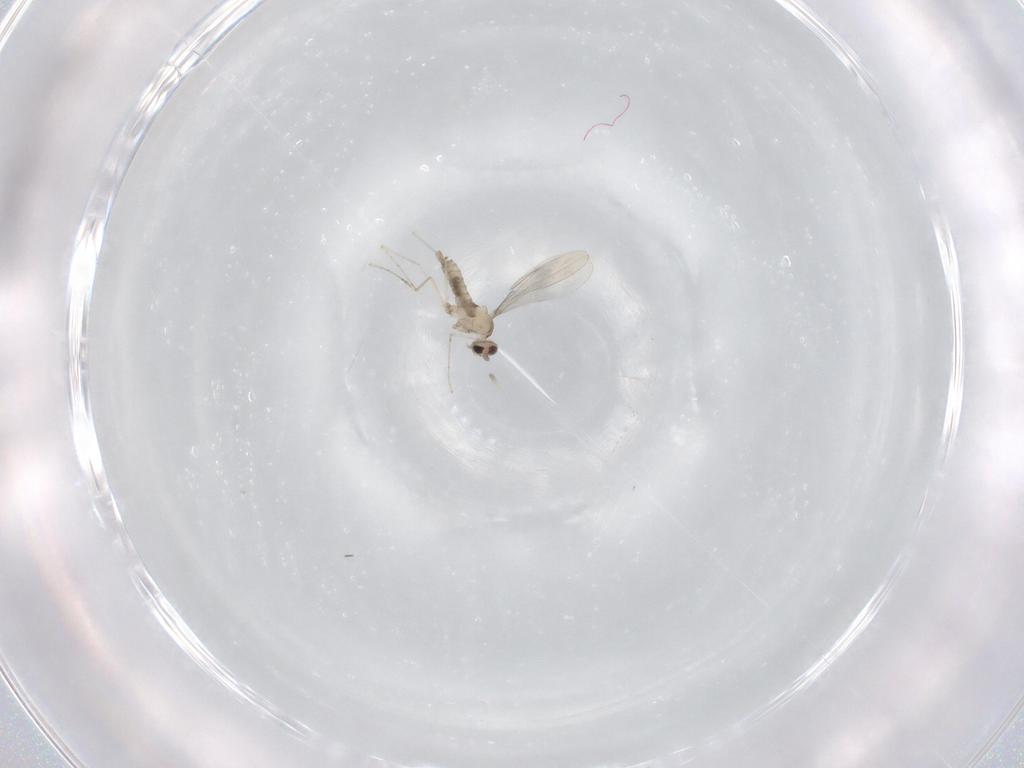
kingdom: Animalia
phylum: Arthropoda
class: Insecta
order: Diptera
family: Cecidomyiidae
